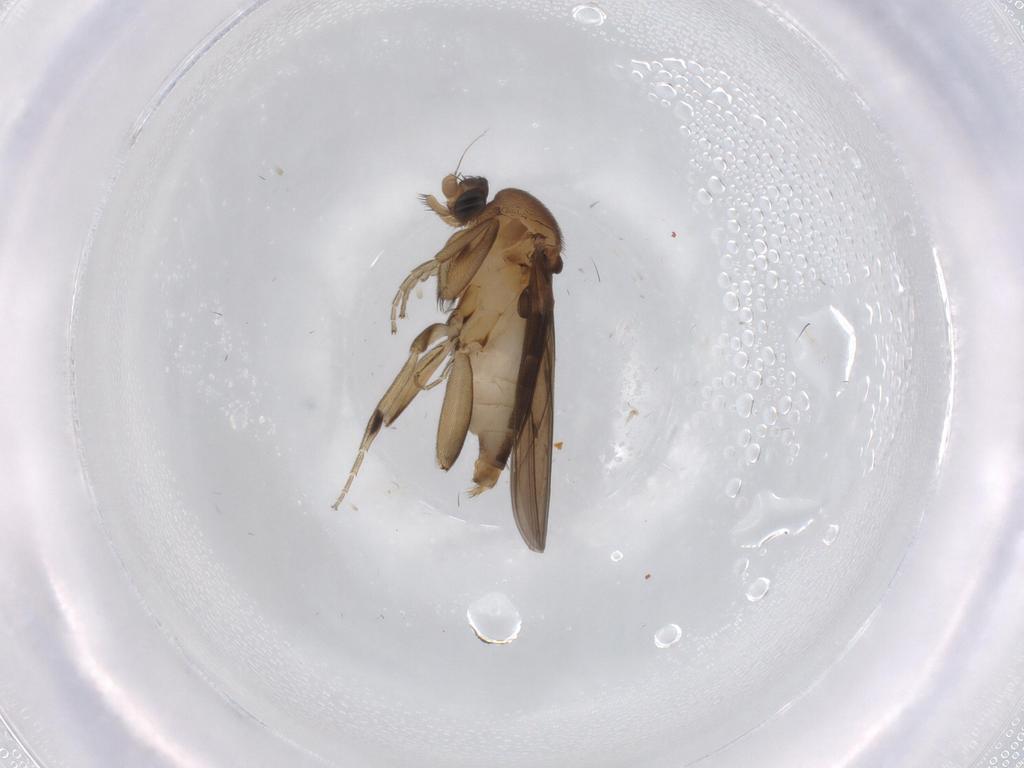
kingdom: Animalia
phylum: Arthropoda
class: Insecta
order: Diptera
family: Phoridae
